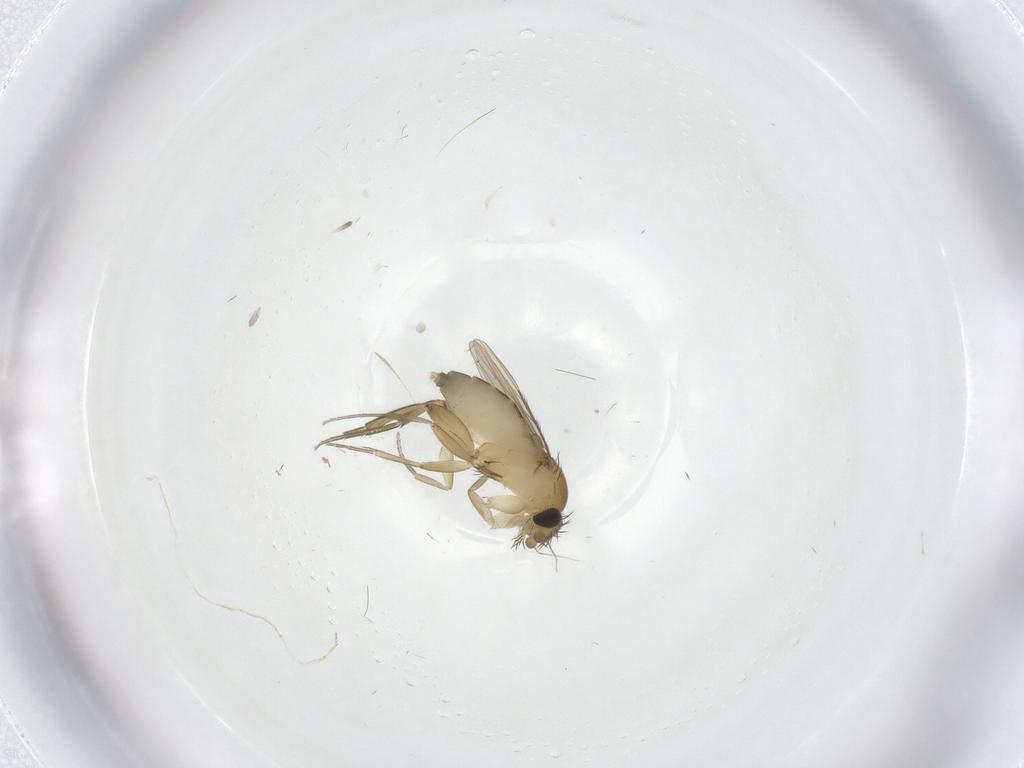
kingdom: Animalia
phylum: Arthropoda
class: Insecta
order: Diptera
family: Phoridae
